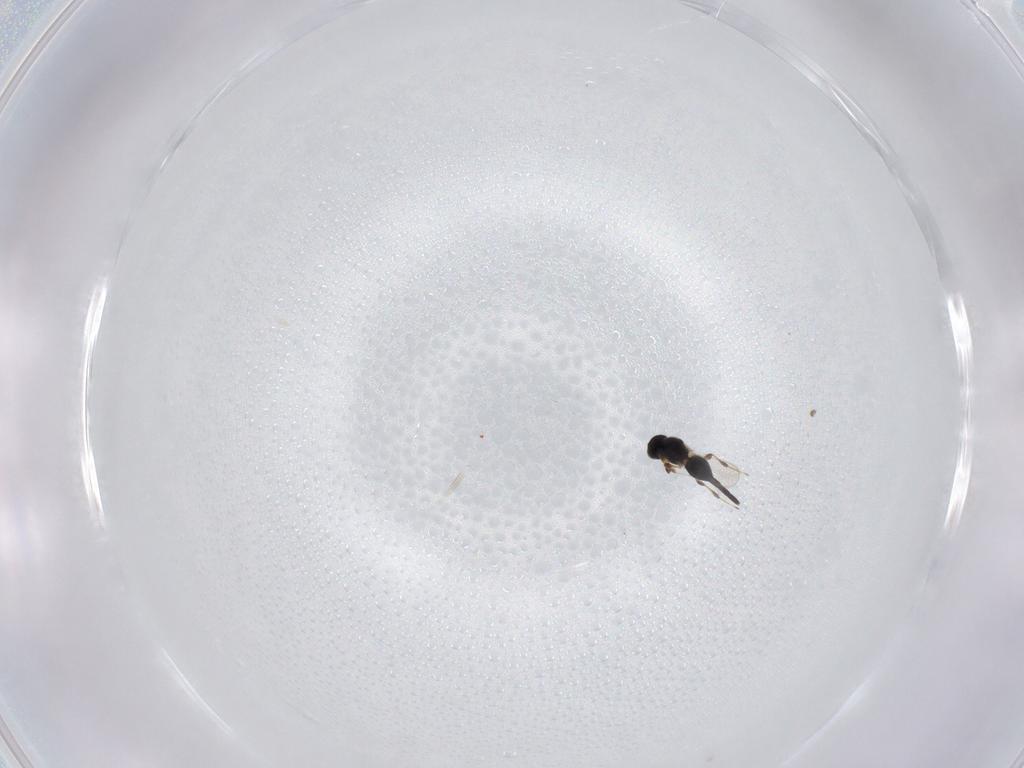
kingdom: Animalia
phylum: Arthropoda
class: Insecta
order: Hymenoptera
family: Platygastridae
